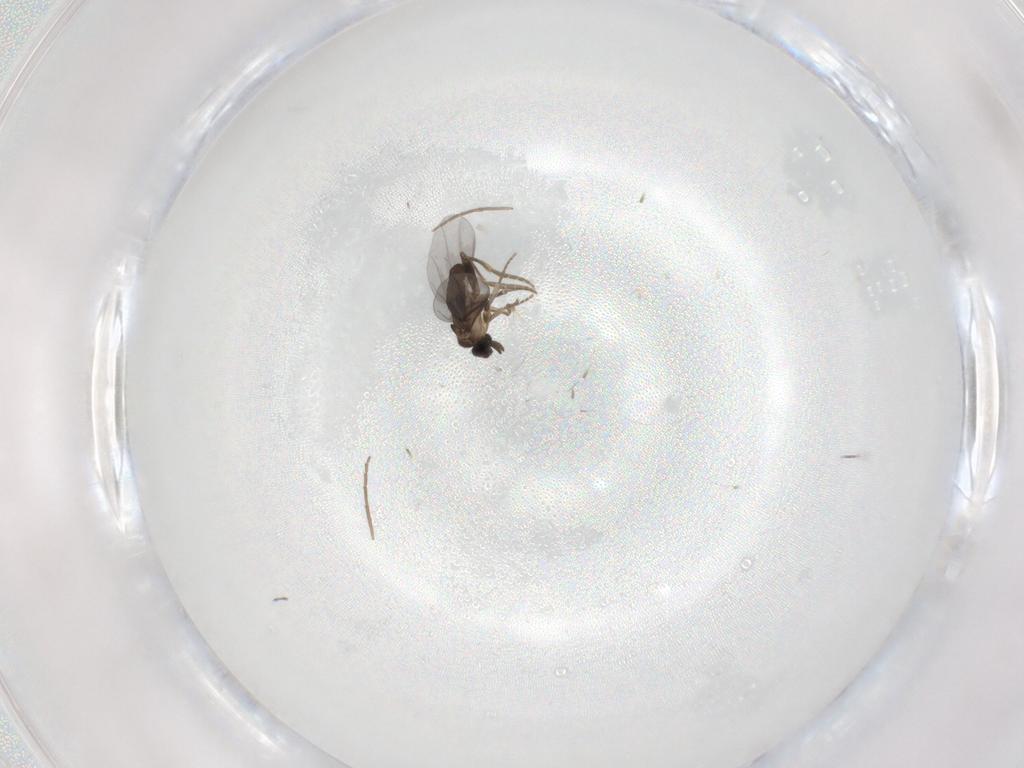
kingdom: Animalia
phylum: Arthropoda
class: Insecta
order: Diptera
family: Chironomidae
